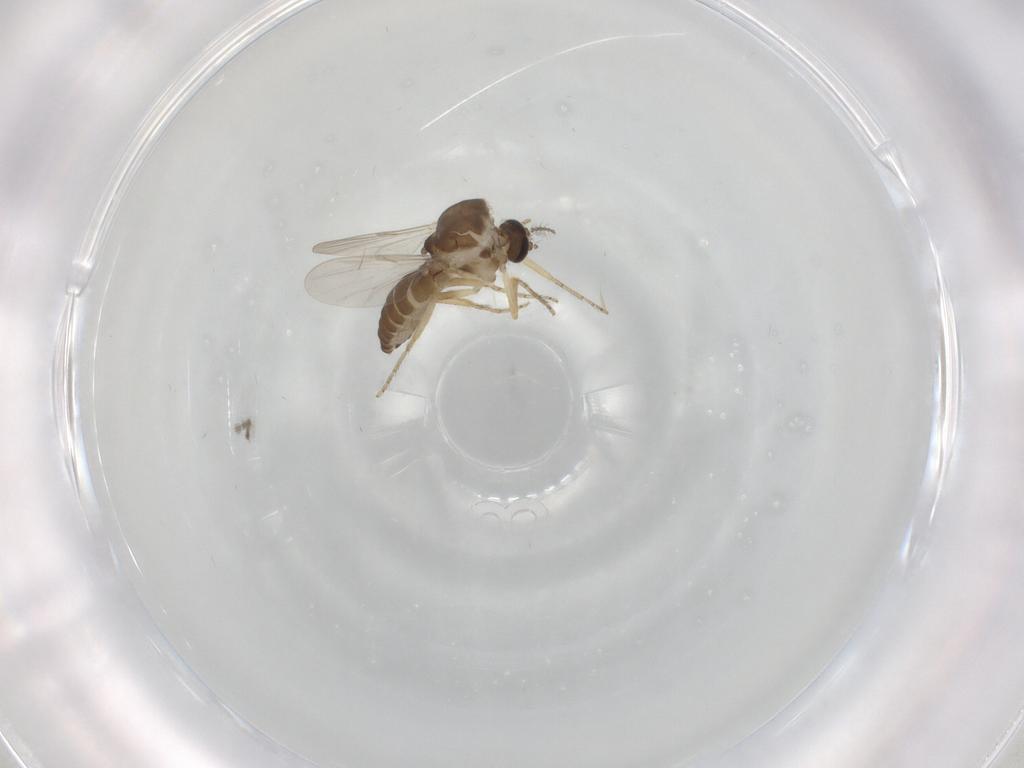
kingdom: Animalia
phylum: Arthropoda
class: Insecta
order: Diptera
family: Ceratopogonidae
